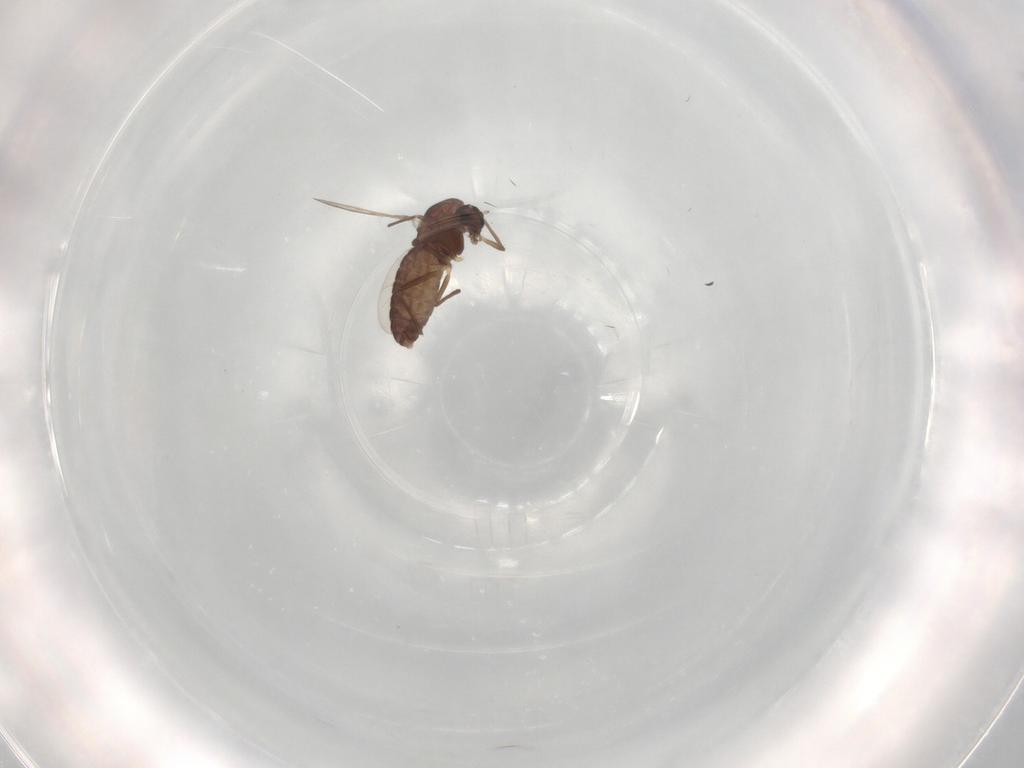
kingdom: Animalia
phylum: Arthropoda
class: Insecta
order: Diptera
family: Chironomidae
